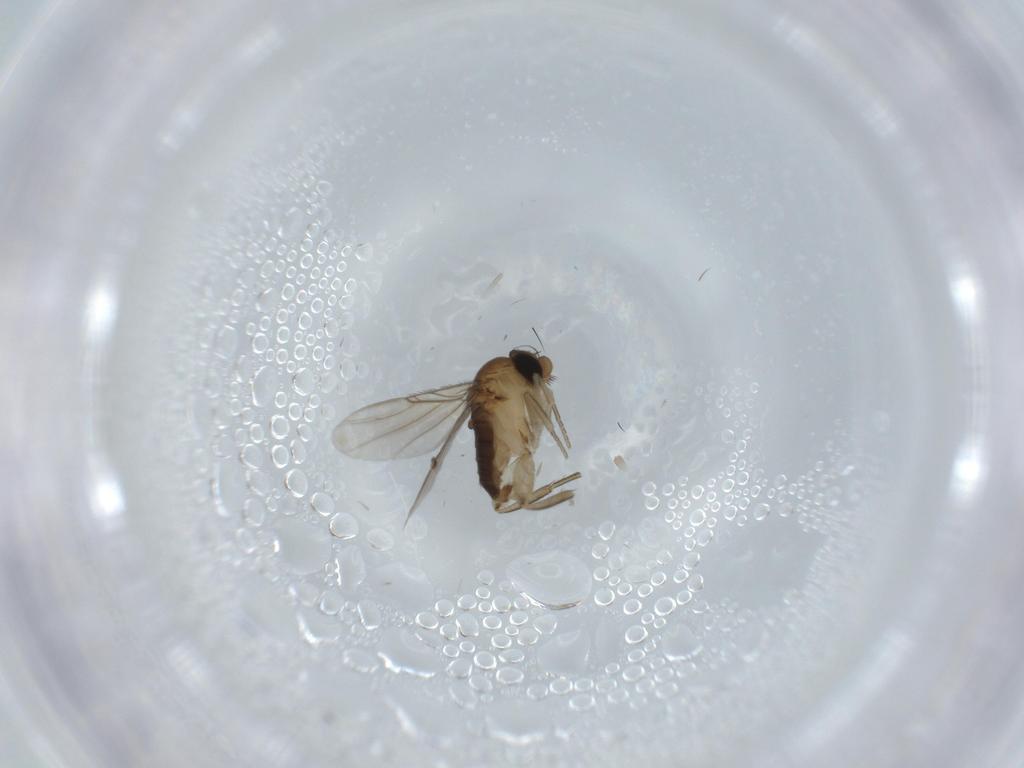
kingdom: Animalia
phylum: Arthropoda
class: Insecta
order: Diptera
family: Phoridae
